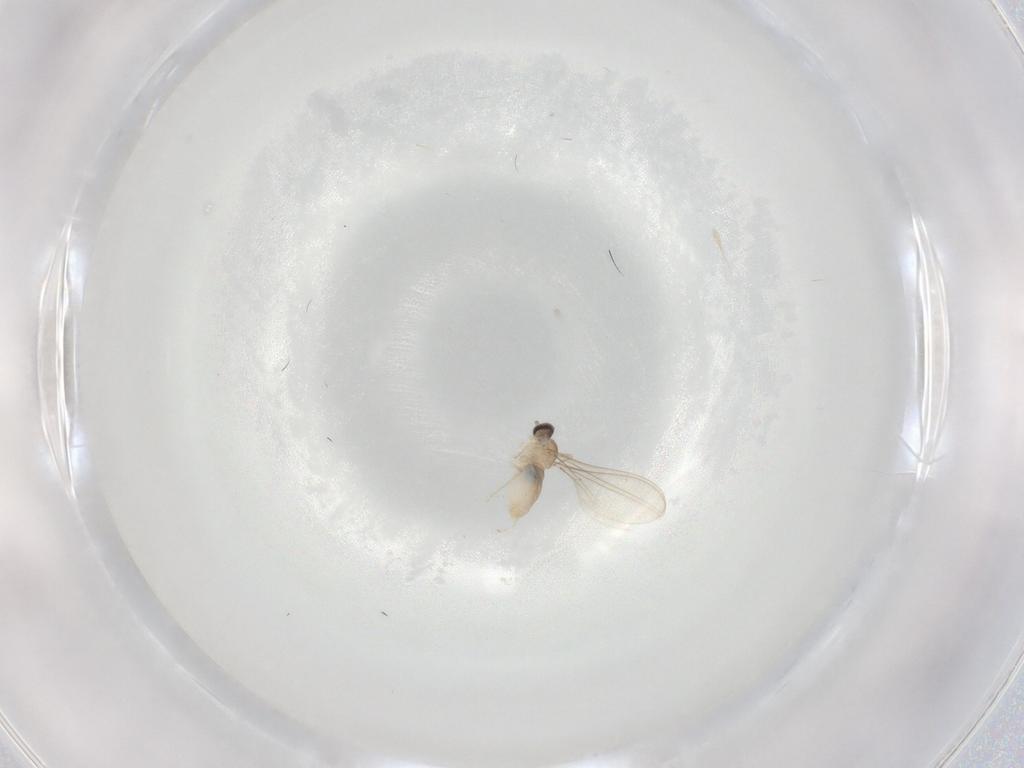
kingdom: Animalia
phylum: Arthropoda
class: Insecta
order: Diptera
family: Cecidomyiidae
